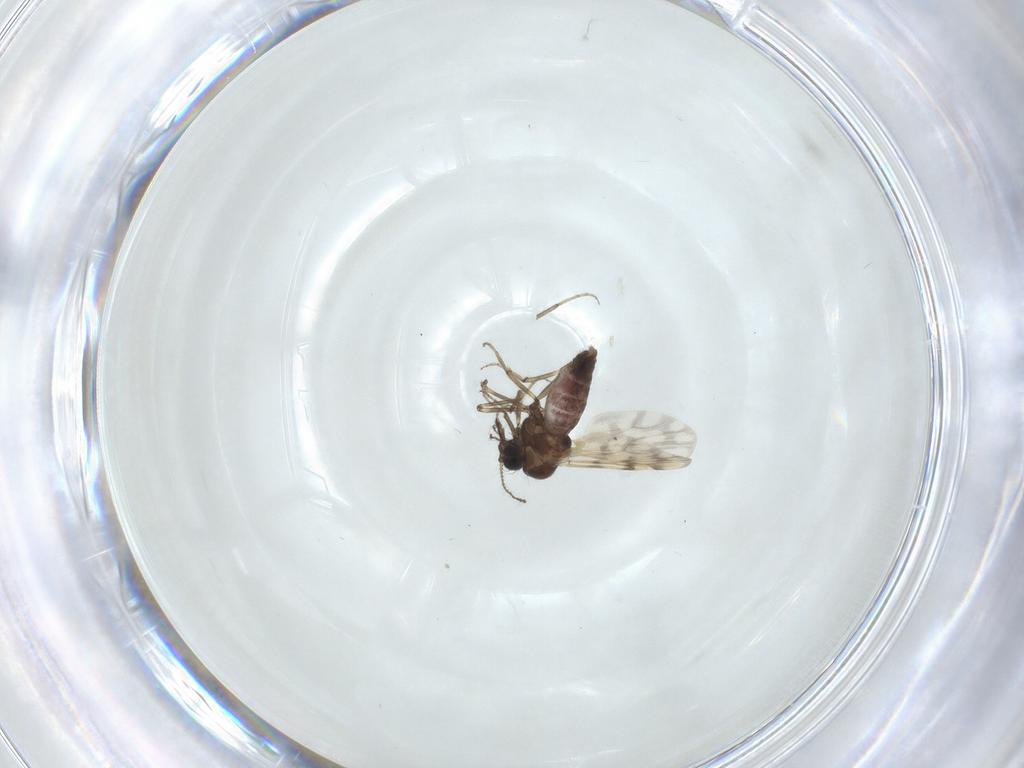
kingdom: Animalia
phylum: Arthropoda
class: Insecta
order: Diptera
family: Ceratopogonidae
